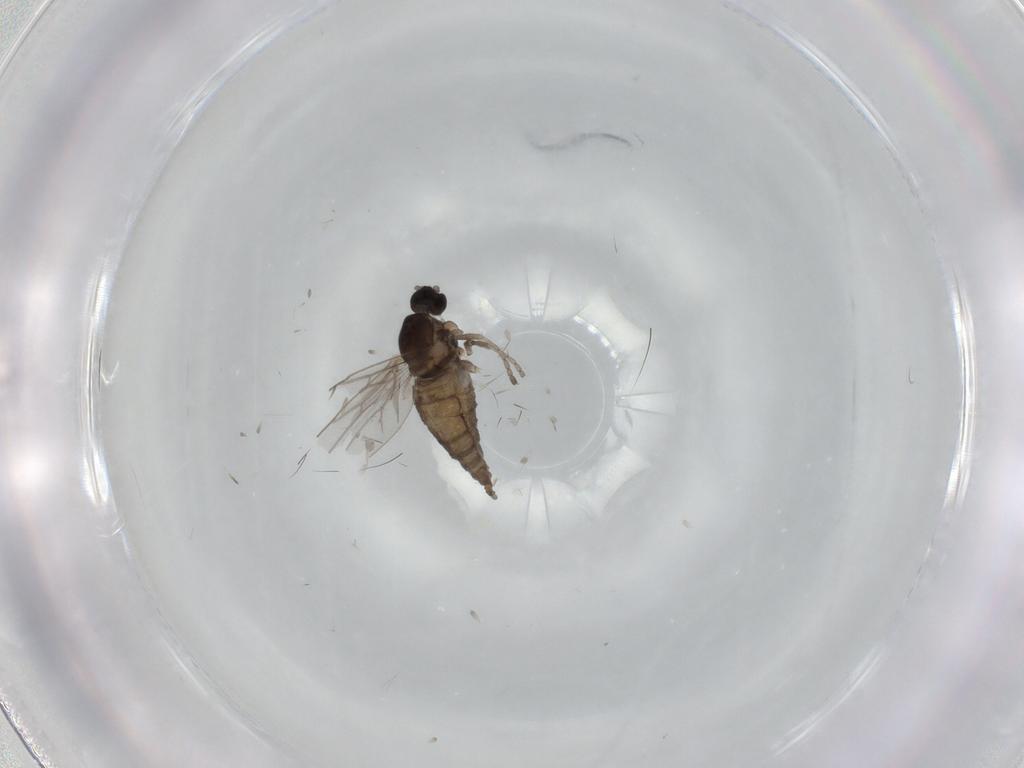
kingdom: Animalia
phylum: Arthropoda
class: Insecta
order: Diptera
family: Cecidomyiidae
